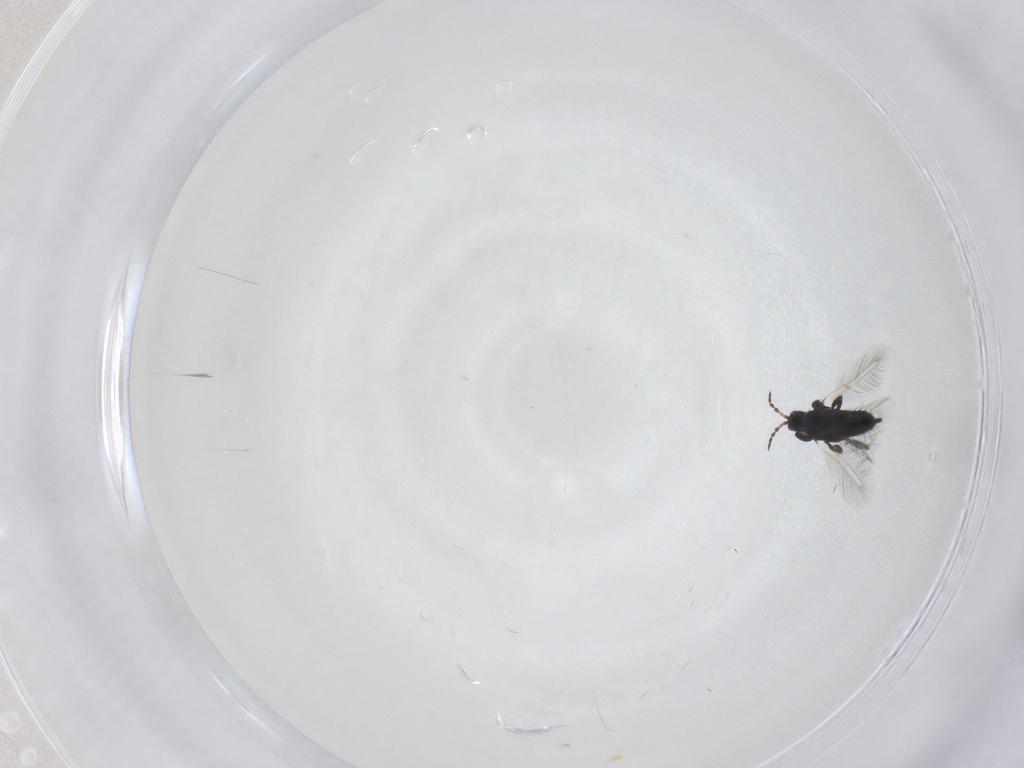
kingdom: Animalia
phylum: Arthropoda
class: Insecta
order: Thysanoptera
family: Phlaeothripidae
